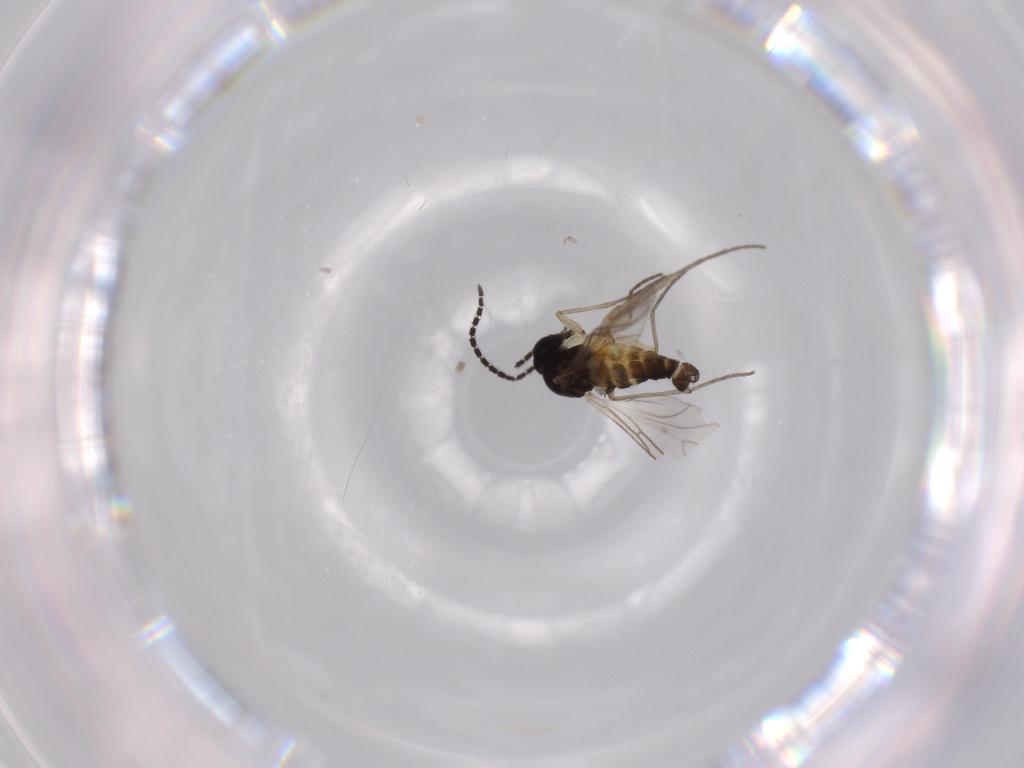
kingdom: Animalia
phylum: Arthropoda
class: Insecta
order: Diptera
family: Sciaridae
